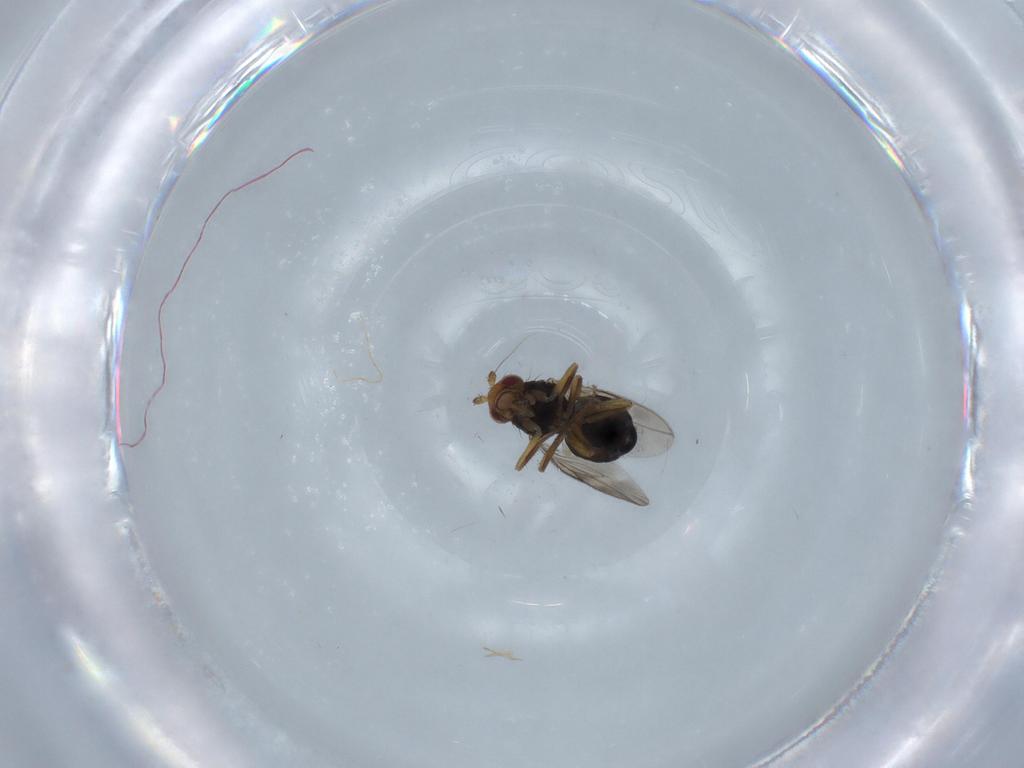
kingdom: Animalia
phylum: Arthropoda
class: Insecta
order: Diptera
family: Sphaeroceridae
